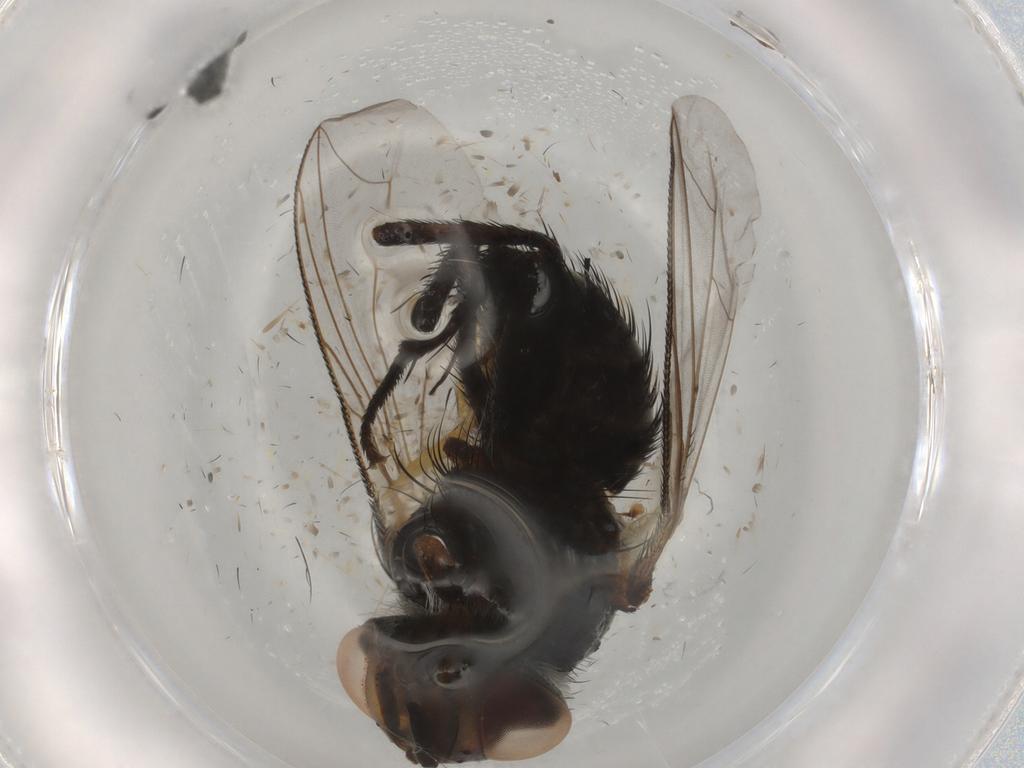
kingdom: Animalia
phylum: Arthropoda
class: Insecta
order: Diptera
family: Tachinidae
